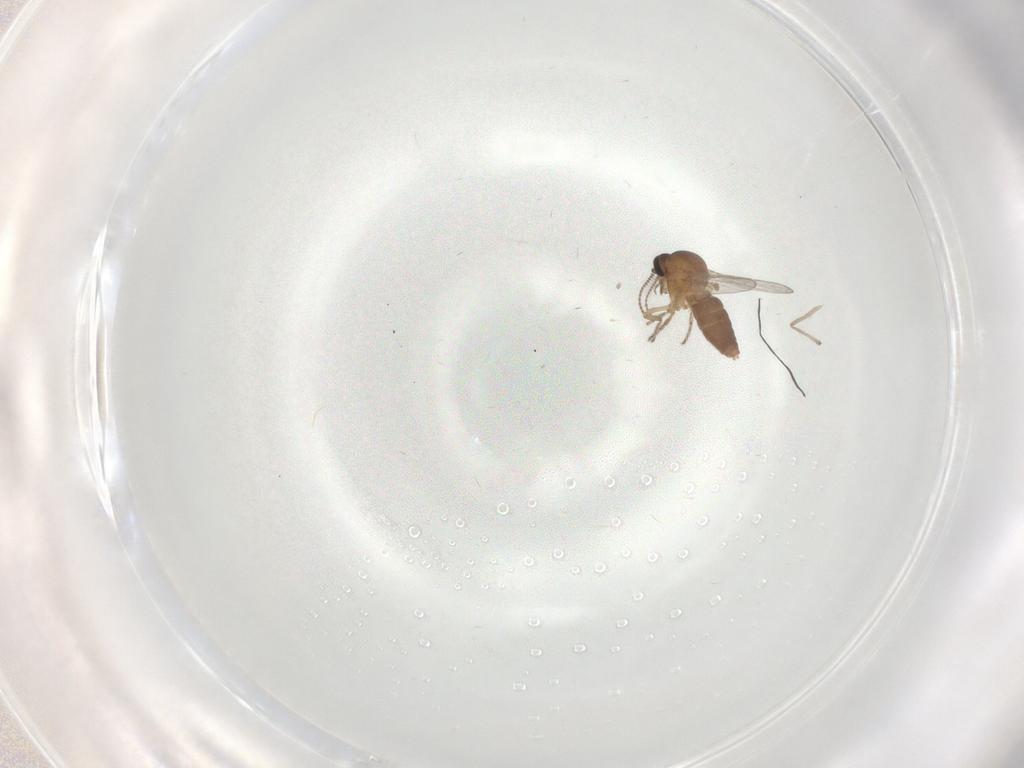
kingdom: Animalia
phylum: Arthropoda
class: Insecta
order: Diptera
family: Ceratopogonidae
